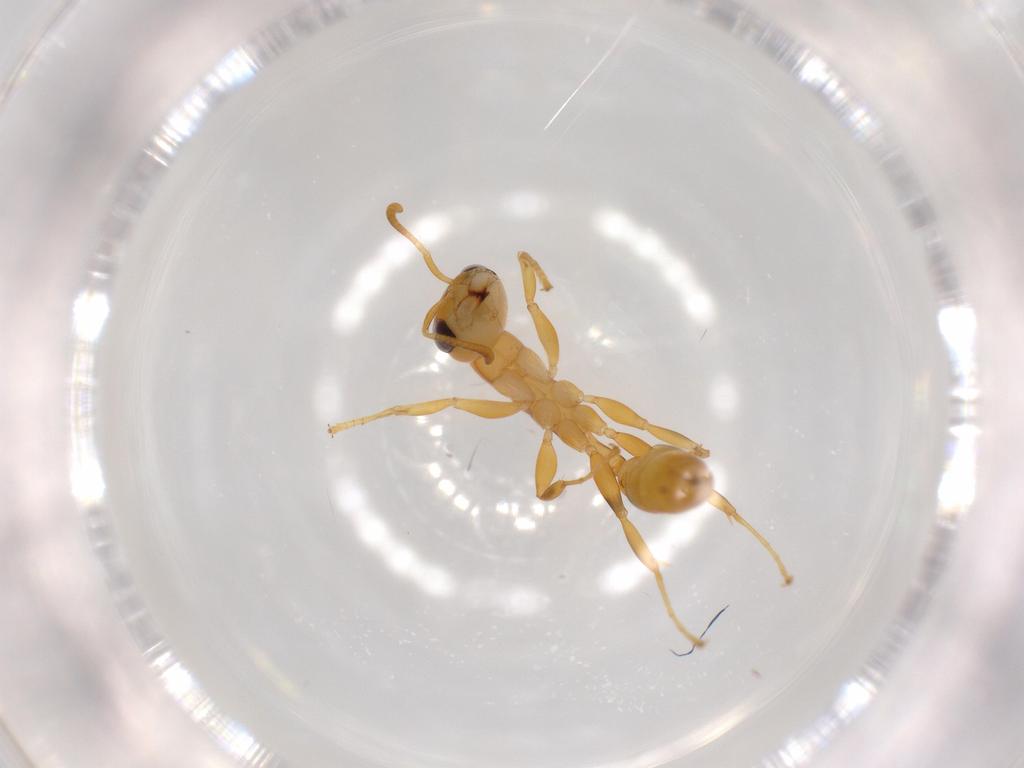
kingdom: Animalia
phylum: Arthropoda
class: Insecta
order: Hymenoptera
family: Formicidae
